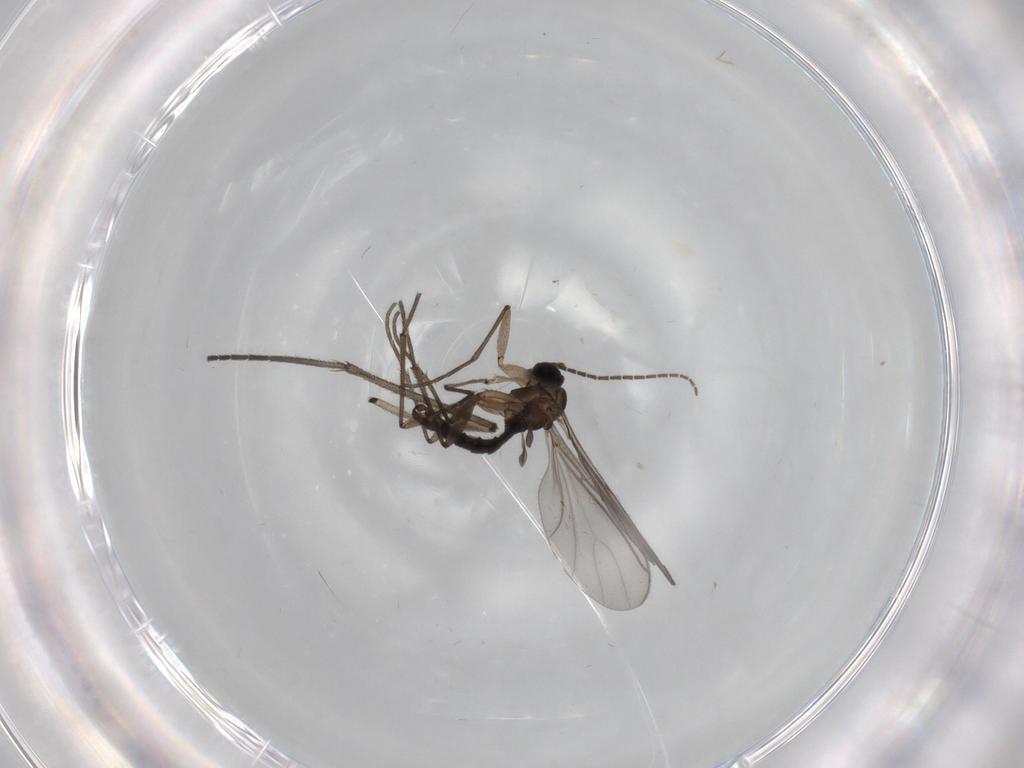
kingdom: Animalia
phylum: Arthropoda
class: Insecta
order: Diptera
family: Sciaridae
